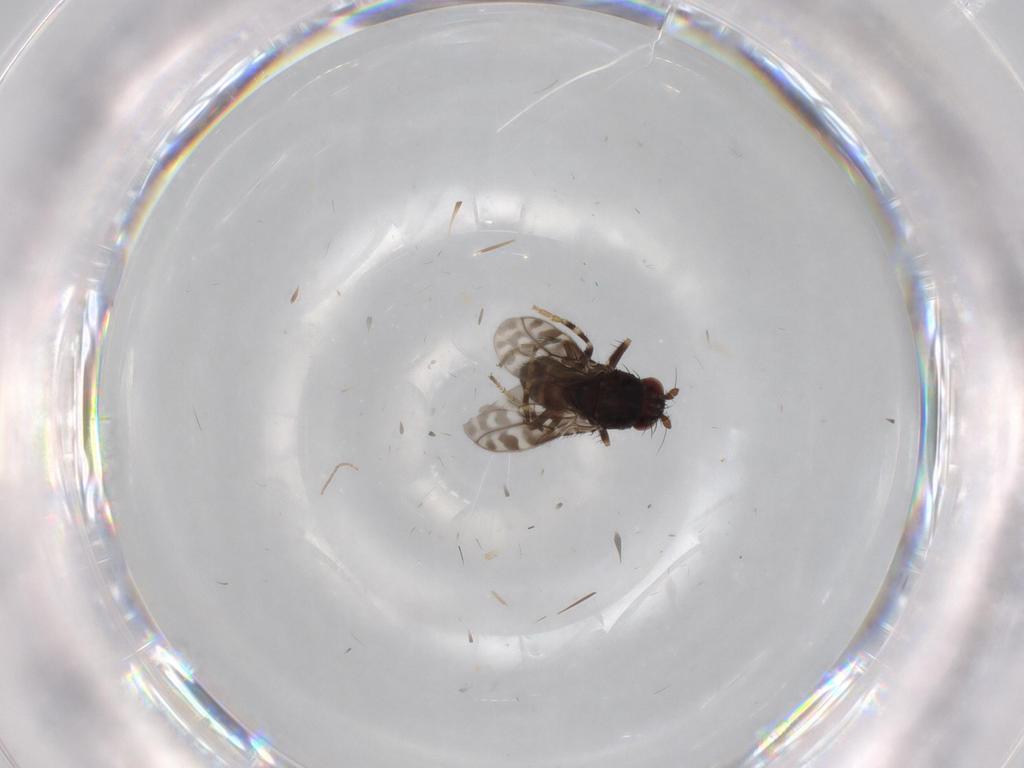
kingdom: Animalia
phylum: Arthropoda
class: Insecta
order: Diptera
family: Sphaeroceridae
